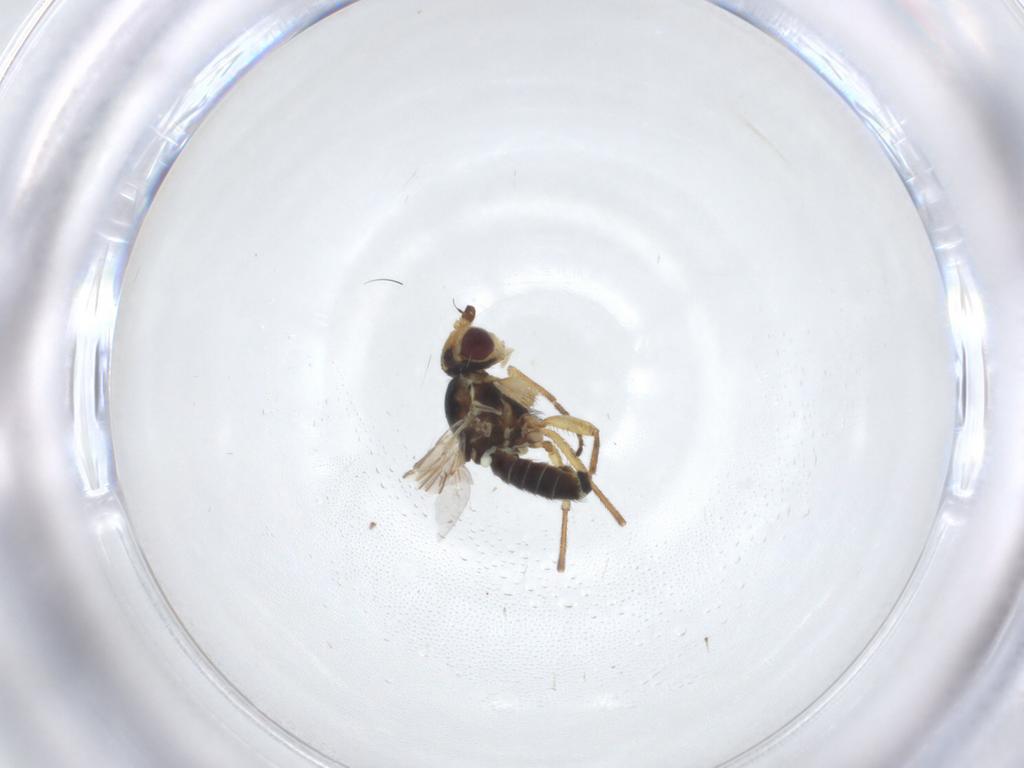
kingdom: Animalia
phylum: Arthropoda
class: Insecta
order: Diptera
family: Agromyzidae
